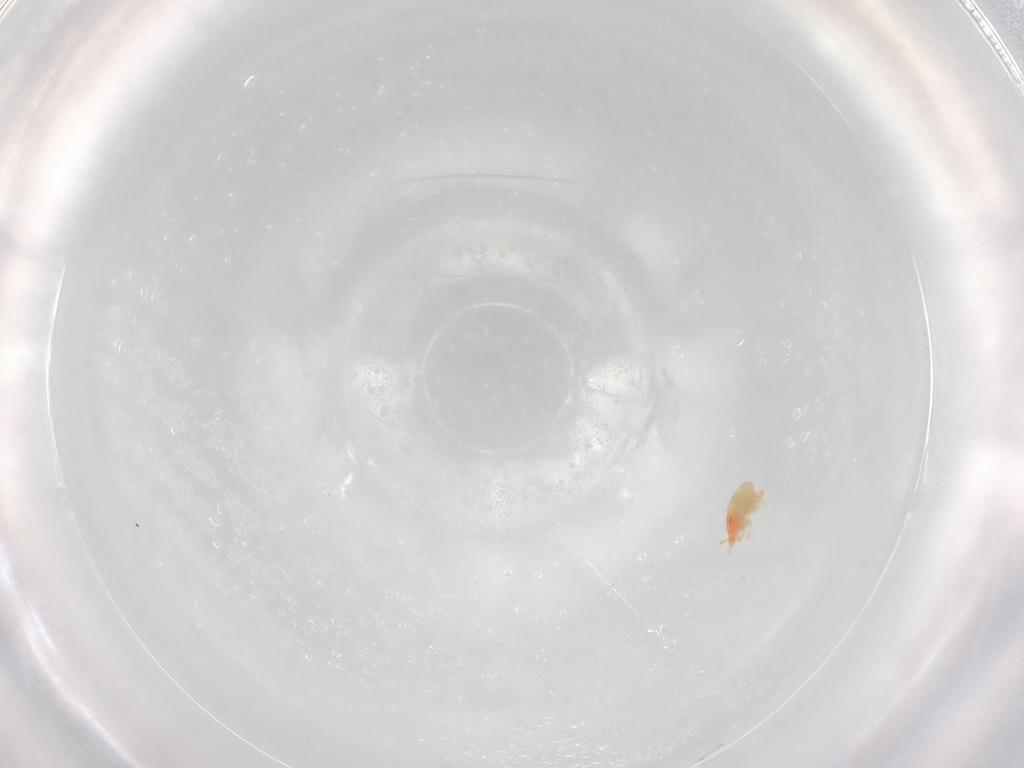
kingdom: Animalia
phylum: Arthropoda
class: Arachnida
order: Trombidiformes
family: Bdellidae
